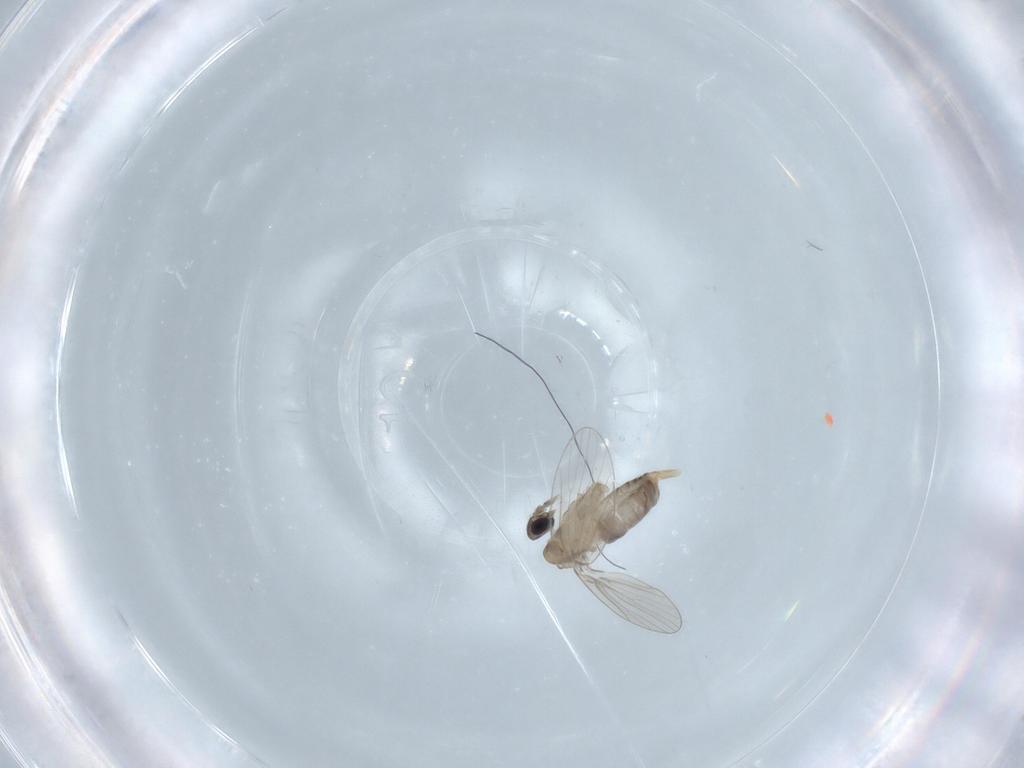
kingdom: Animalia
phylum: Arthropoda
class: Insecta
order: Diptera
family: Psychodidae
